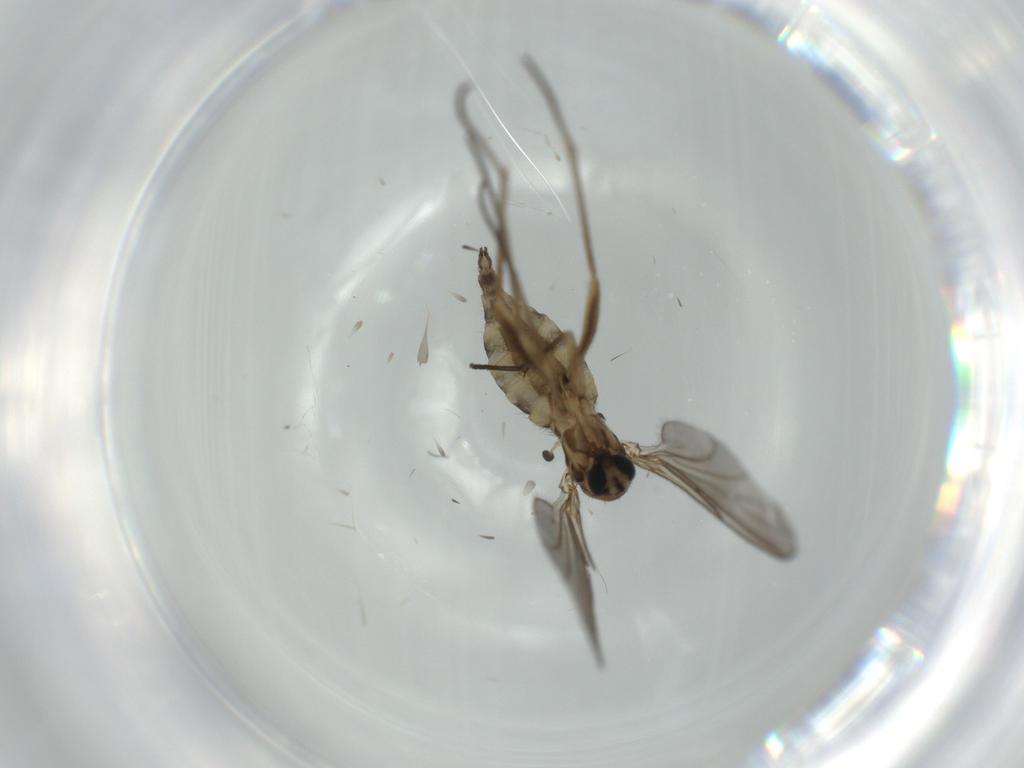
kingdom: Animalia
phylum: Arthropoda
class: Insecta
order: Diptera
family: Sciaridae
